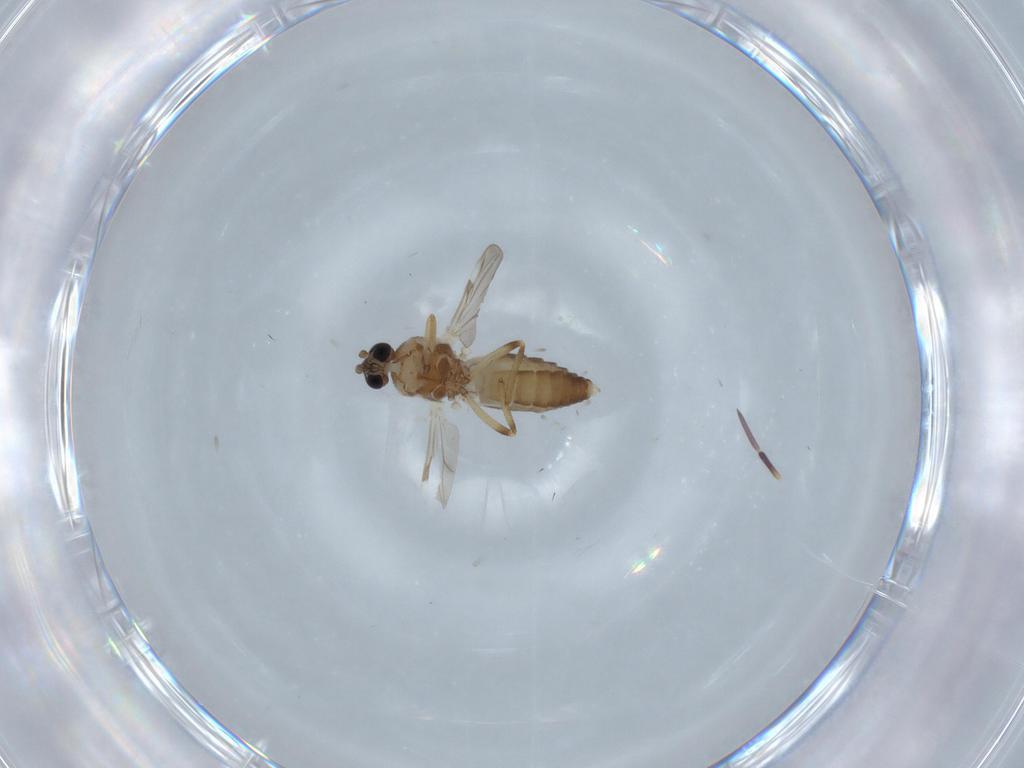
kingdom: Animalia
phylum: Arthropoda
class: Insecta
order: Diptera
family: Ceratopogonidae
